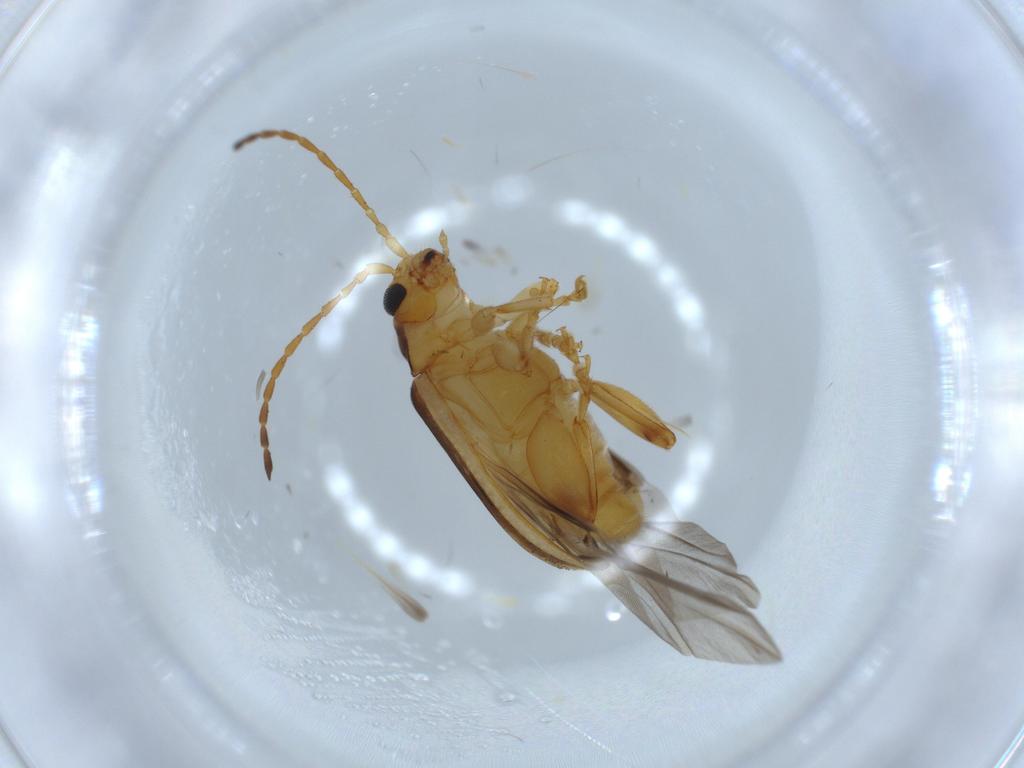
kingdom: Animalia
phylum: Arthropoda
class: Insecta
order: Coleoptera
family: Chrysomelidae
